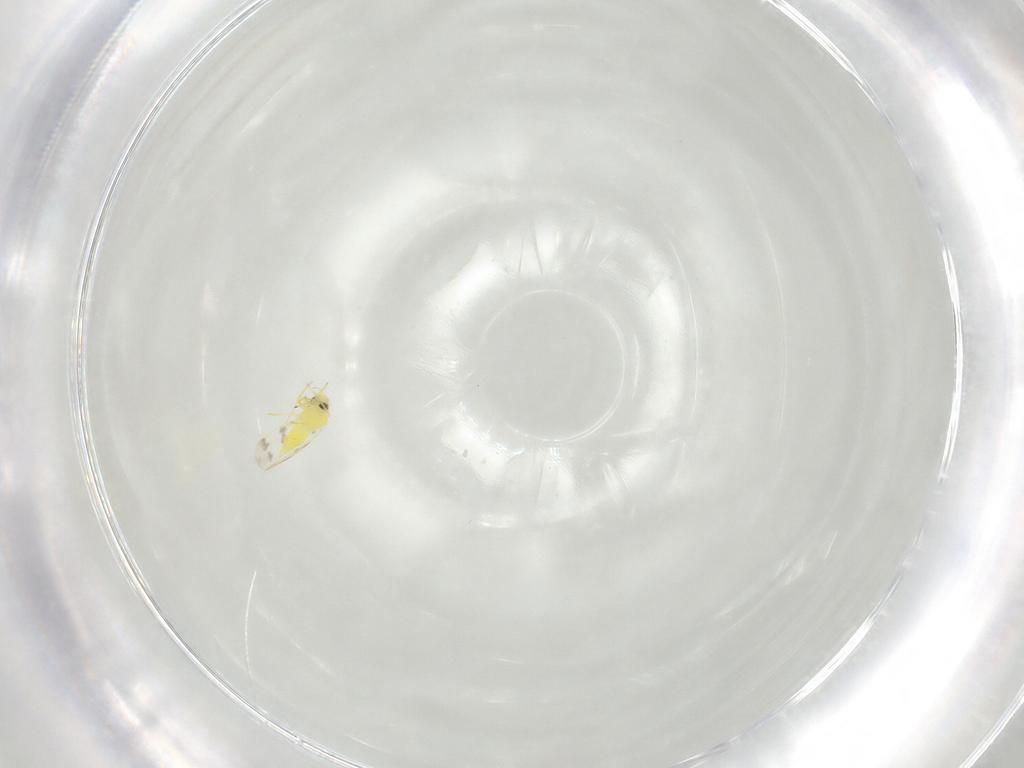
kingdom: Animalia
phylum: Arthropoda
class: Insecta
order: Hemiptera
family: Aleyrodidae
